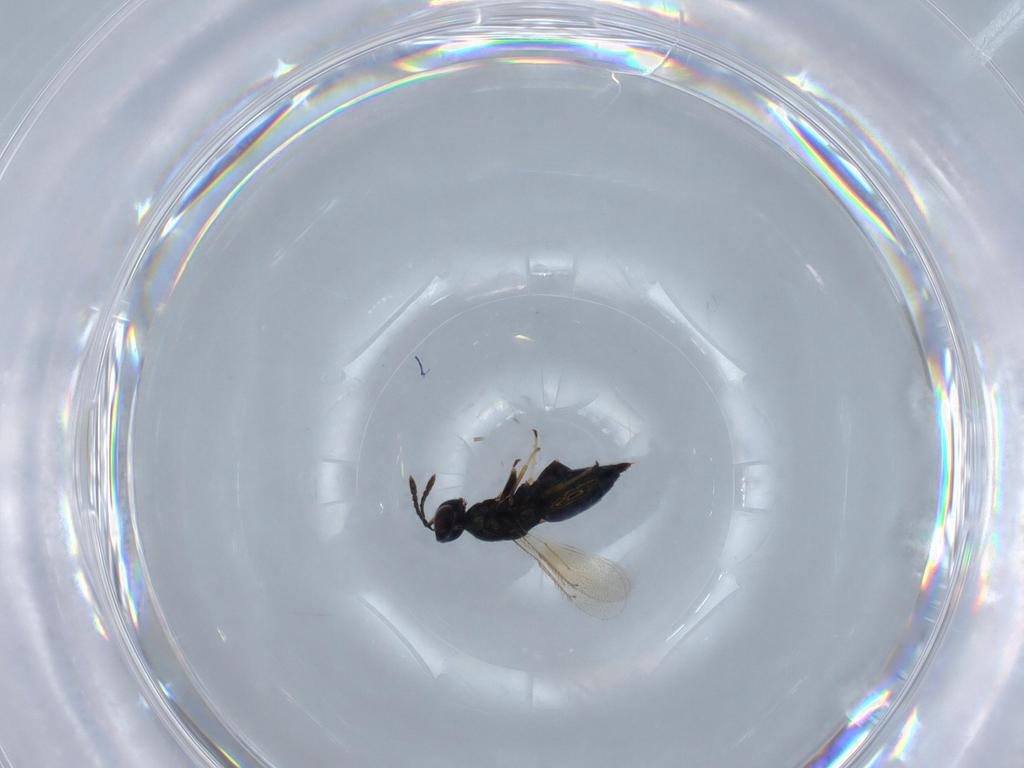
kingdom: Animalia
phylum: Arthropoda
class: Insecta
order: Hymenoptera
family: Eulophidae
